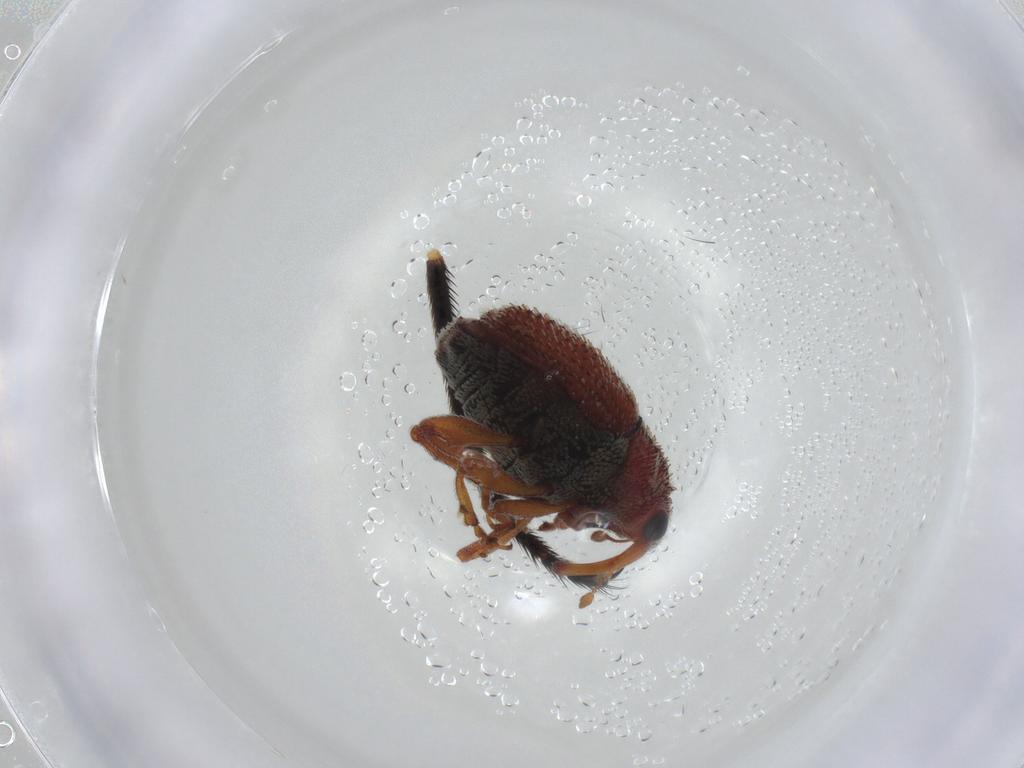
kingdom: Animalia
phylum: Arthropoda
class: Insecta
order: Coleoptera
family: Curculionidae
